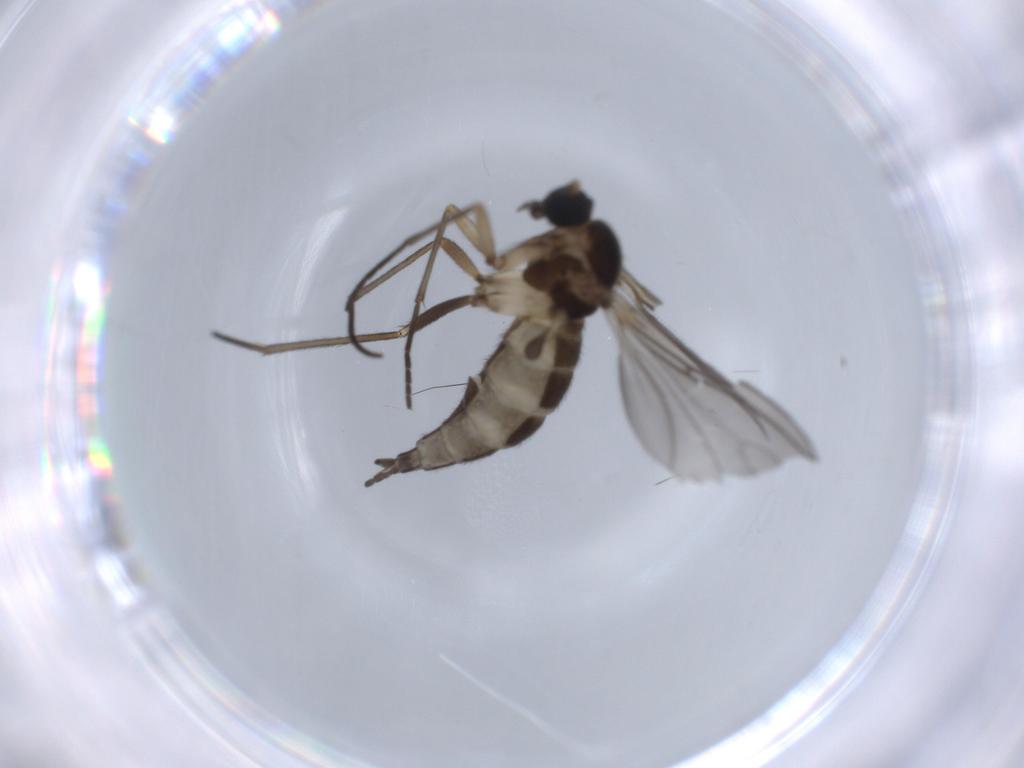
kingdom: Animalia
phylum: Arthropoda
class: Insecta
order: Diptera
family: Sciaridae
